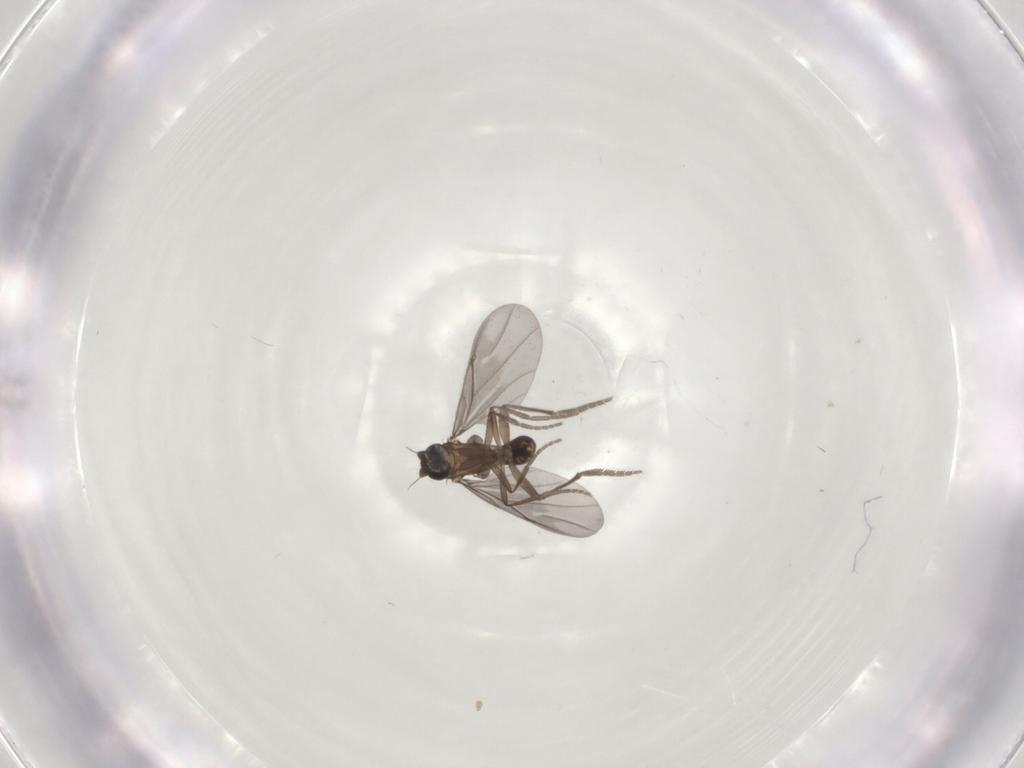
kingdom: Animalia
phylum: Arthropoda
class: Insecta
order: Diptera
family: Phoridae
